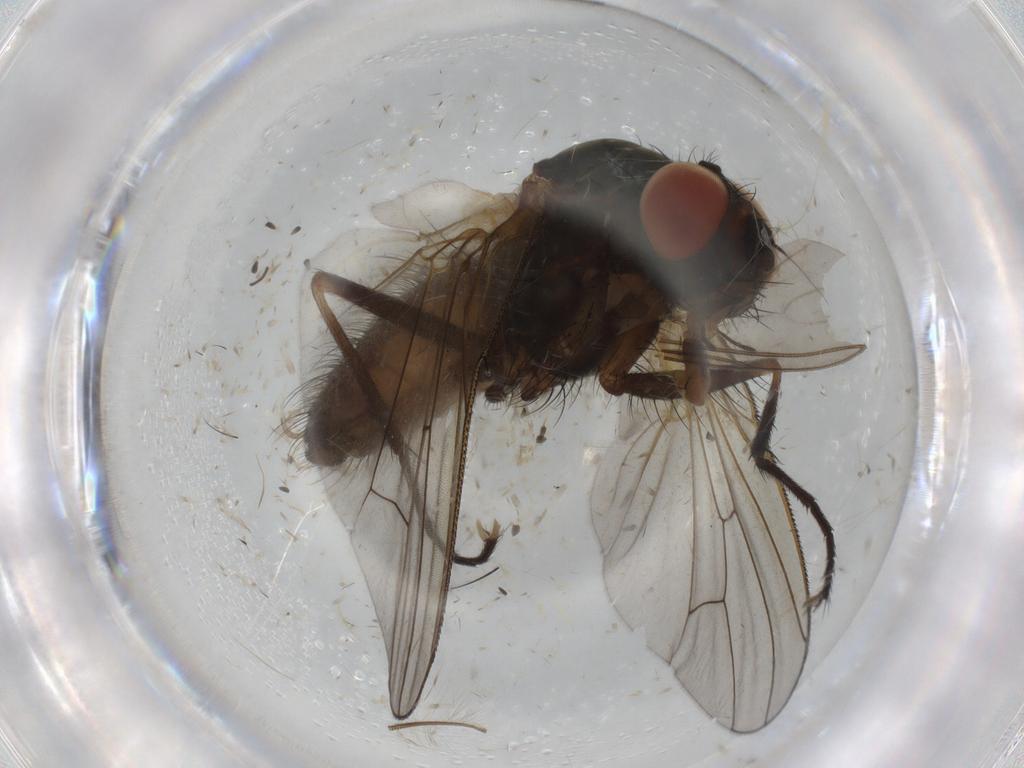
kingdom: Animalia
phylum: Arthropoda
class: Insecta
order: Diptera
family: Anthomyiidae
